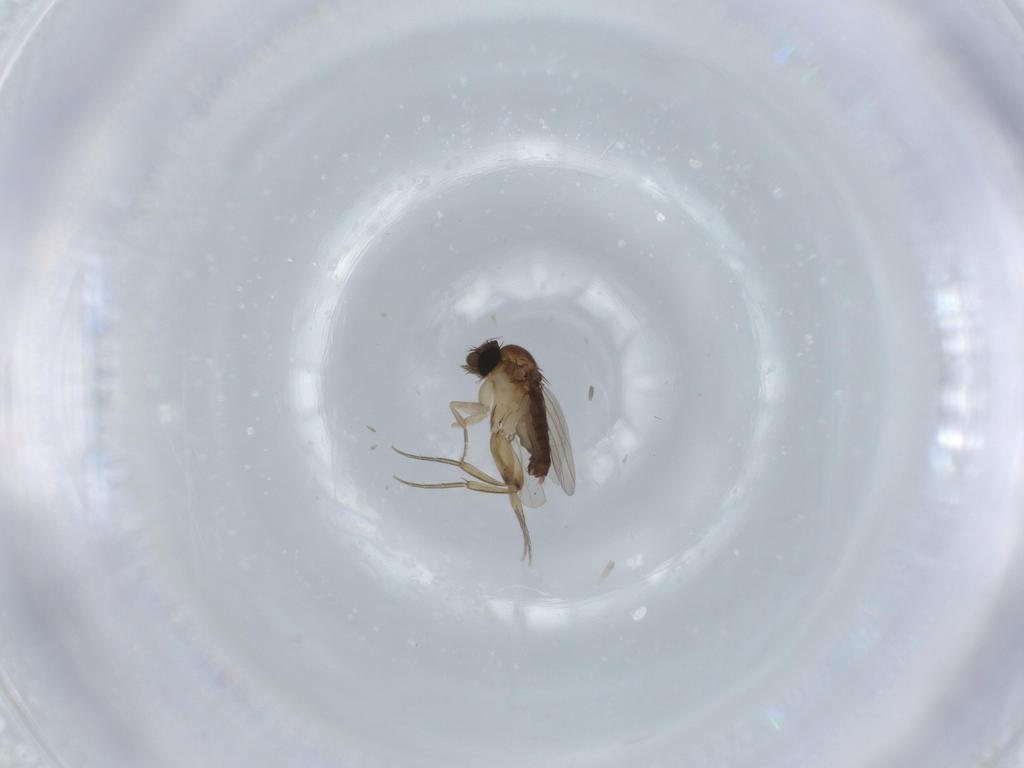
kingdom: Animalia
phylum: Arthropoda
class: Insecta
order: Diptera
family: Phoridae
